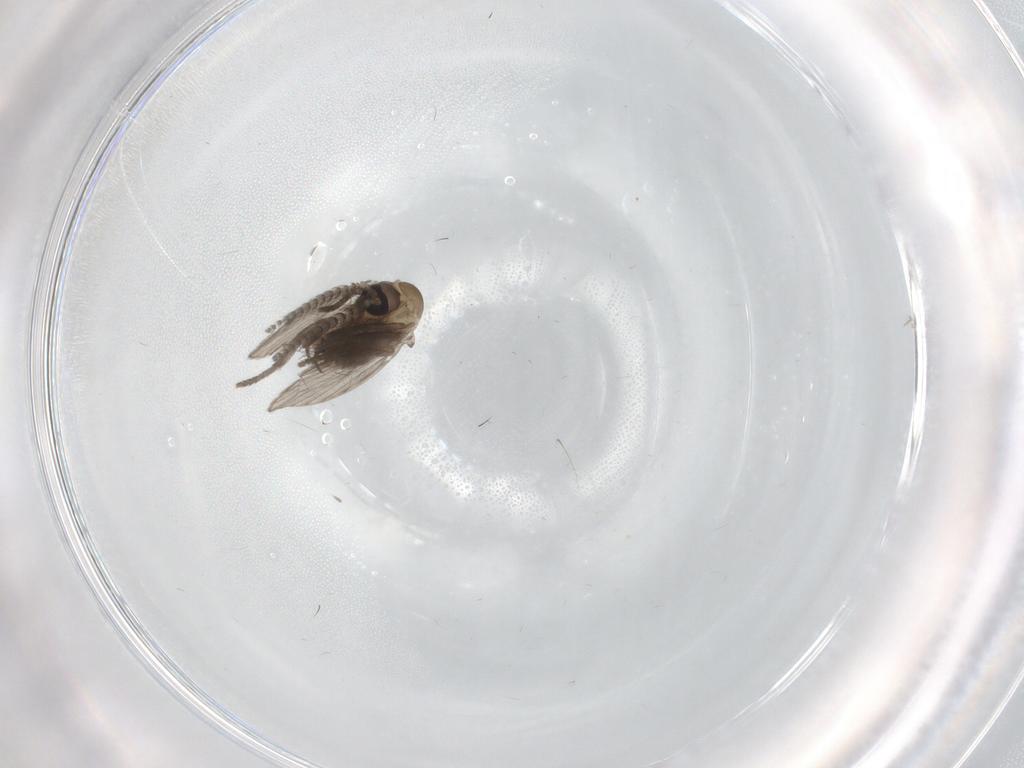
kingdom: Animalia
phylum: Arthropoda
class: Insecta
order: Diptera
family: Psychodidae
